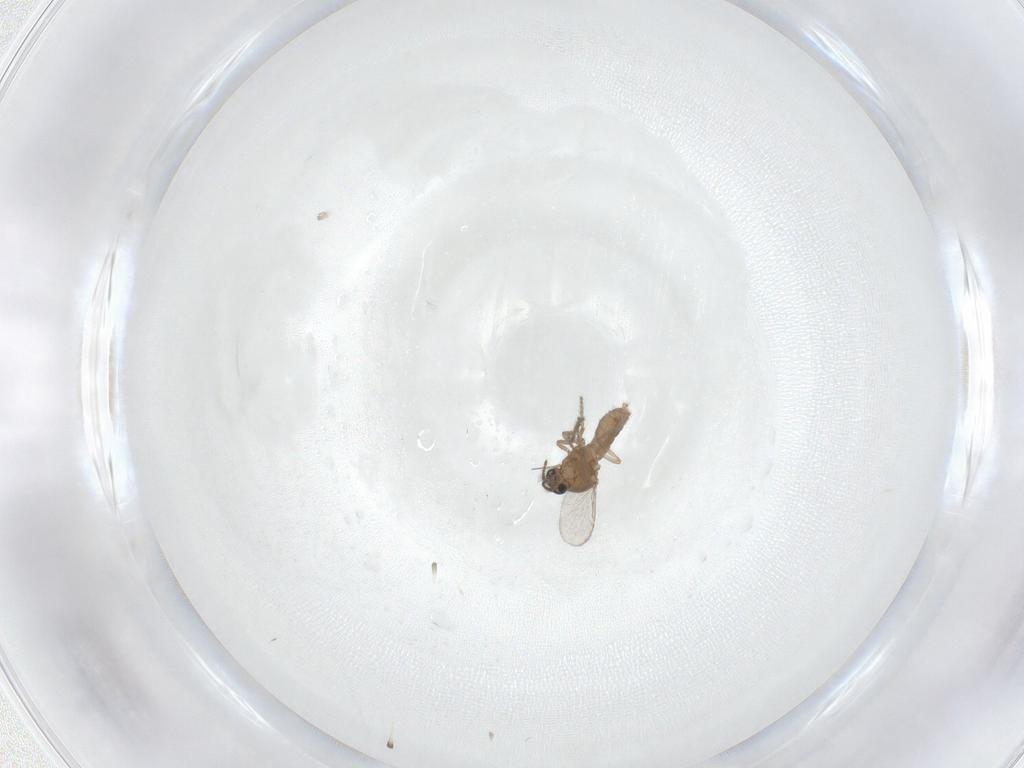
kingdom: Animalia
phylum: Arthropoda
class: Insecta
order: Diptera
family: Ceratopogonidae
